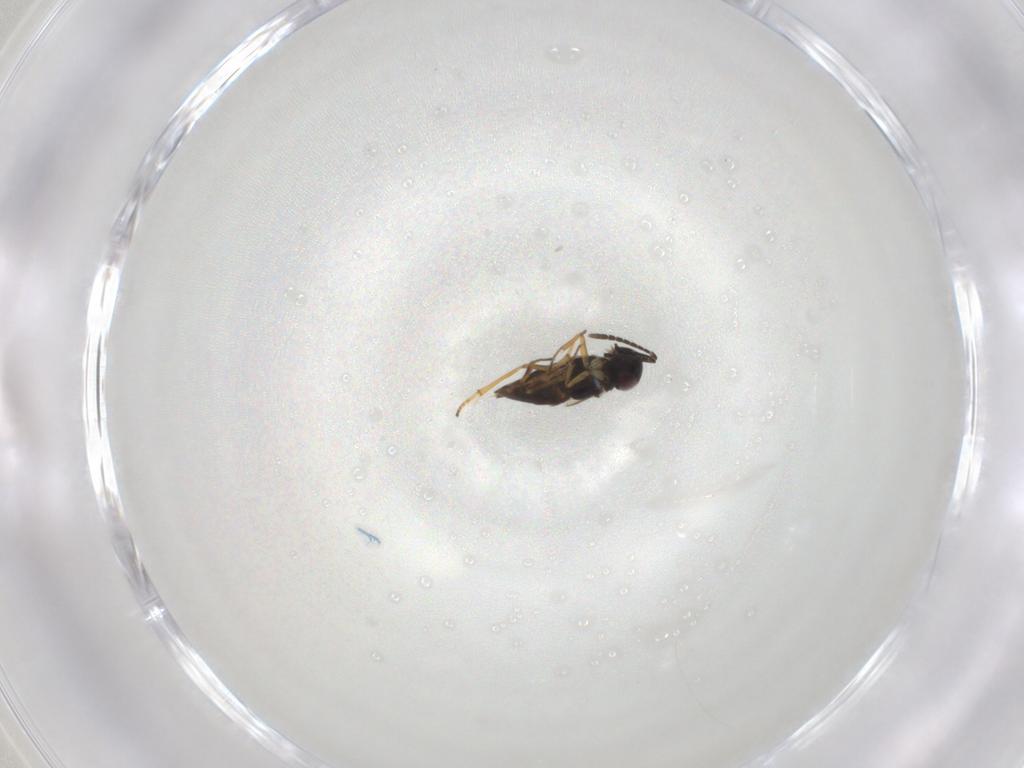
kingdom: Animalia
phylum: Arthropoda
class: Insecta
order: Hymenoptera
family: Encyrtidae
